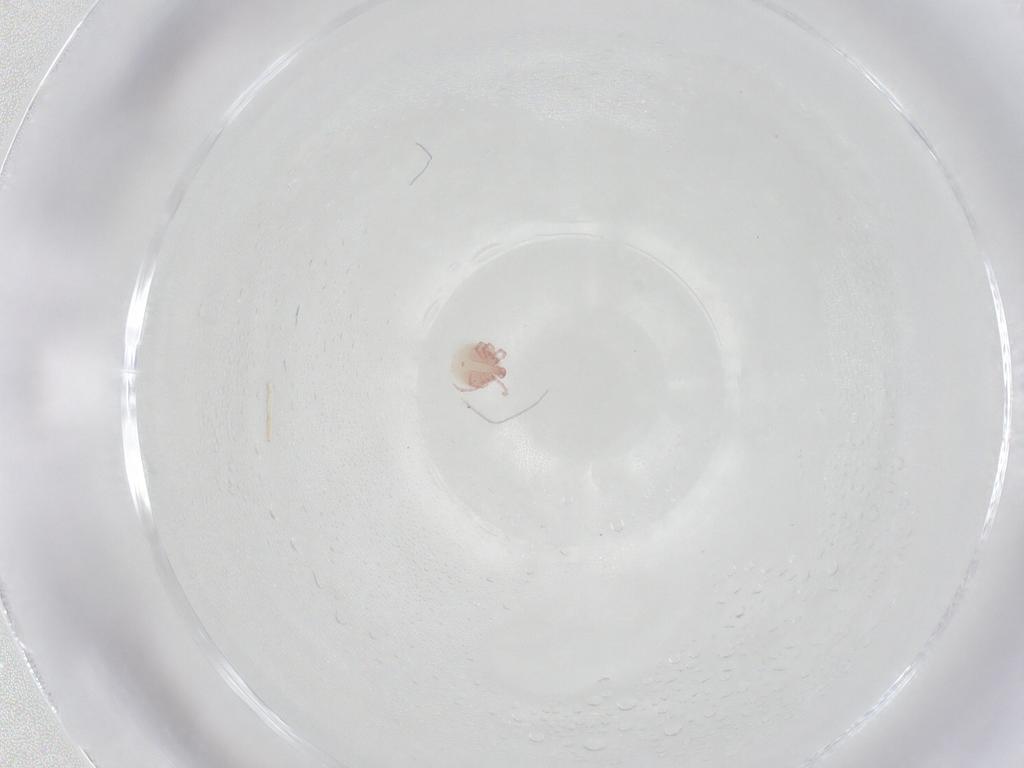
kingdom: Animalia
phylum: Arthropoda
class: Arachnida
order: Trombidiformes
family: Pionidae
